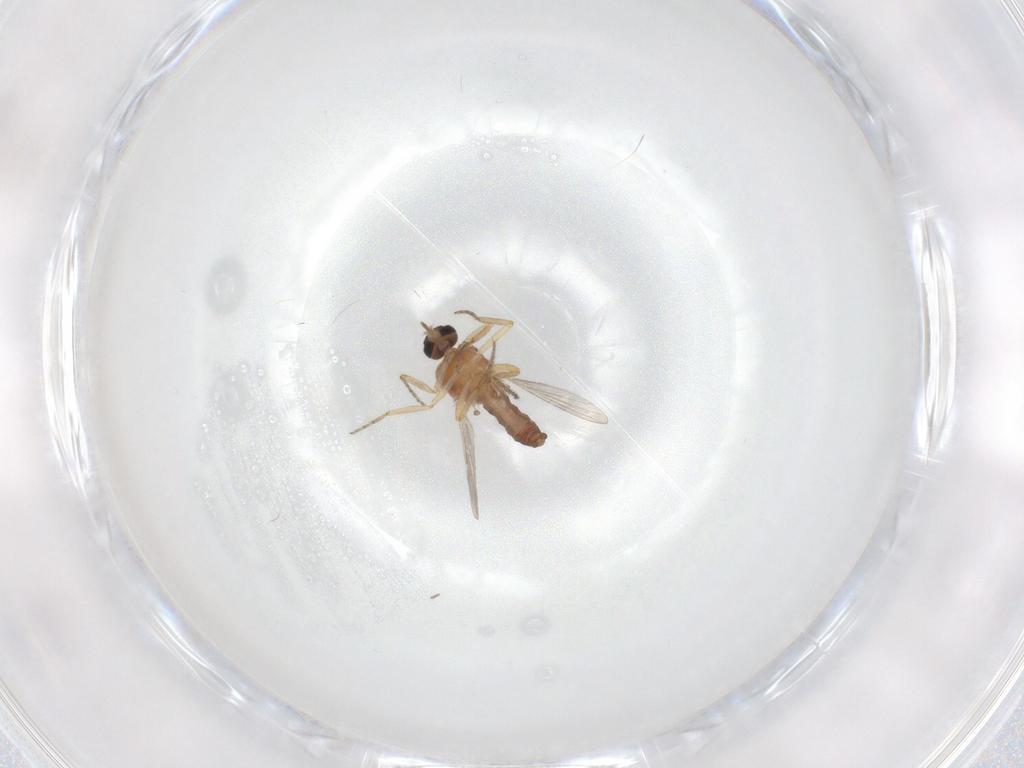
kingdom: Animalia
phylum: Arthropoda
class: Insecta
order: Diptera
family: Ceratopogonidae
